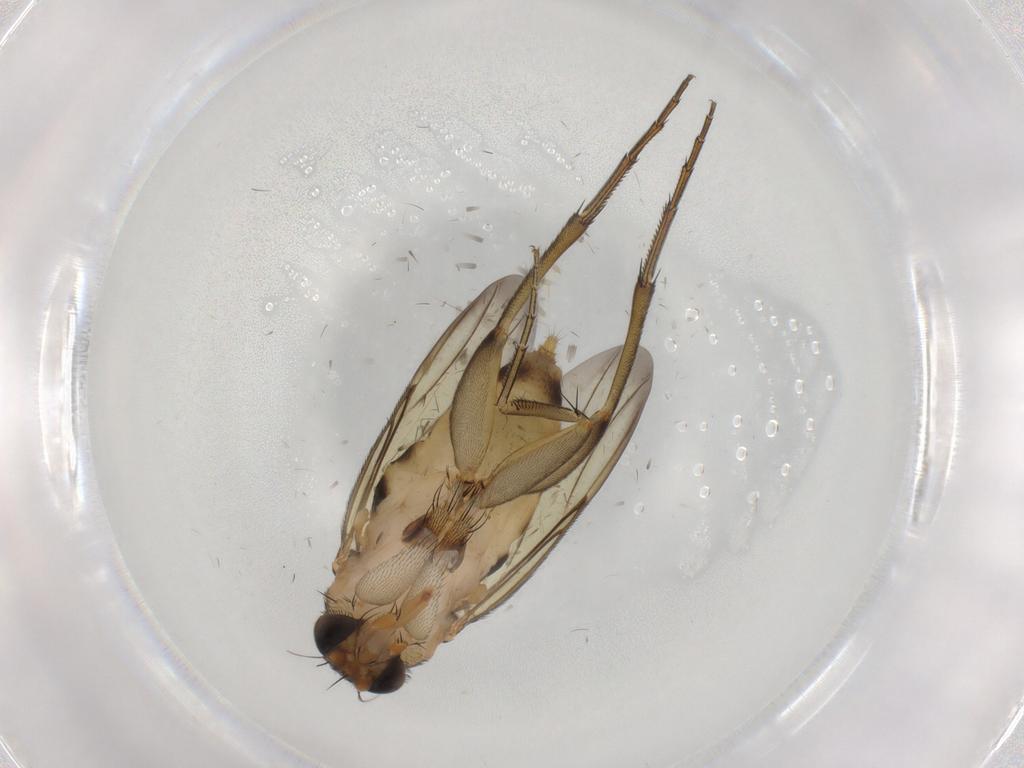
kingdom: Animalia
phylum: Arthropoda
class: Insecta
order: Diptera
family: Phoridae
